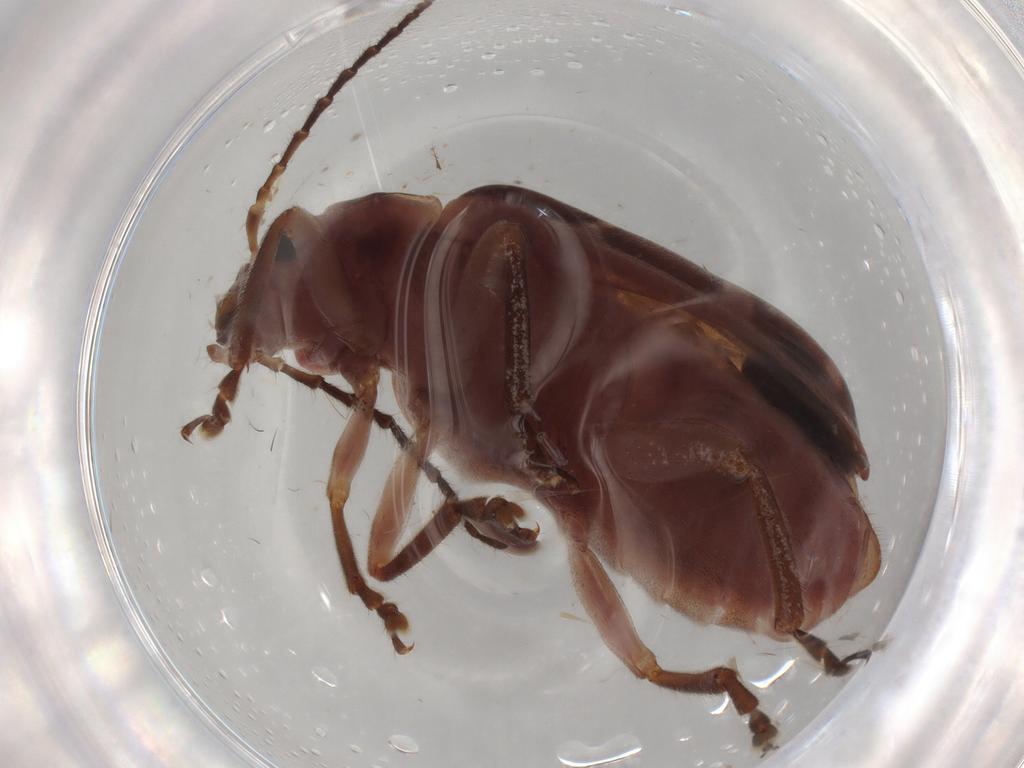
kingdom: Animalia
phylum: Arthropoda
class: Insecta
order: Coleoptera
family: Chrysomelidae
